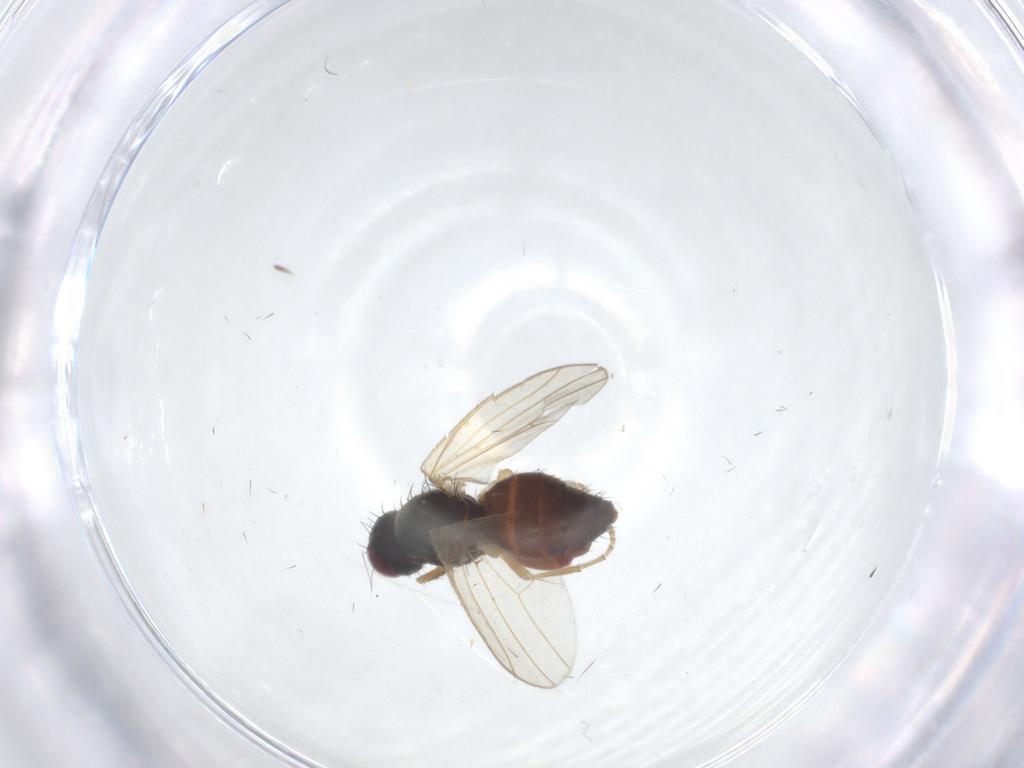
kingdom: Animalia
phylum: Arthropoda
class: Insecta
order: Diptera
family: Heleomyzidae
